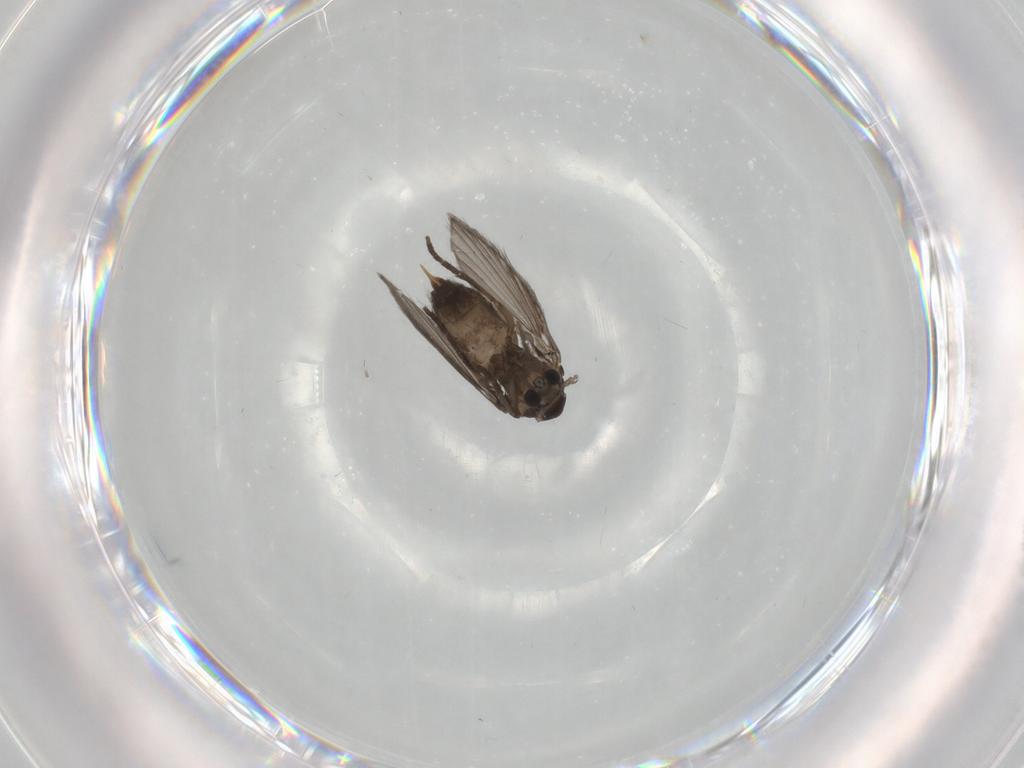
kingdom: Animalia
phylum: Arthropoda
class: Insecta
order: Diptera
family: Psychodidae
